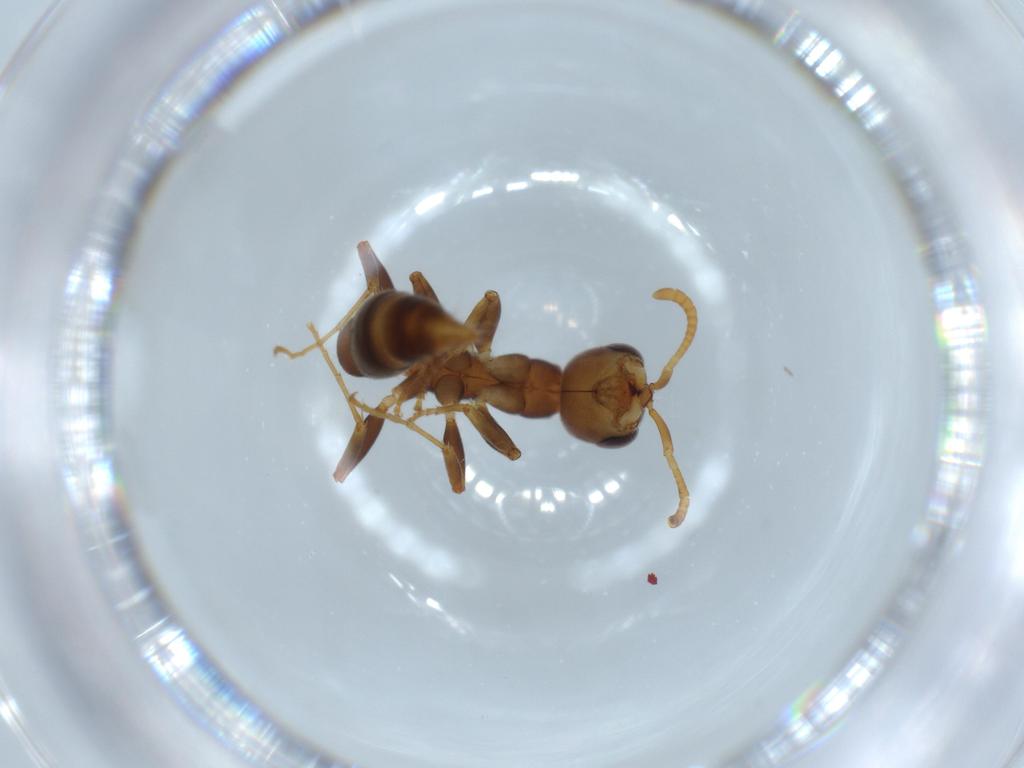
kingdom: Animalia
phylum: Arthropoda
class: Insecta
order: Hymenoptera
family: Formicidae
